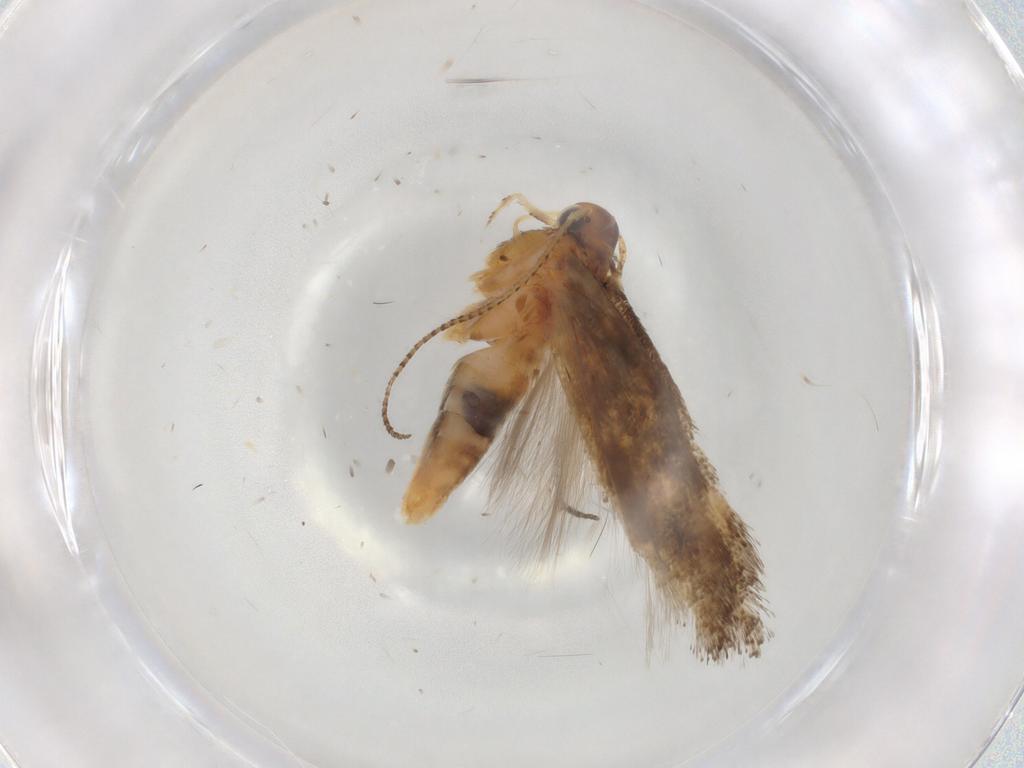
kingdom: Animalia
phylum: Arthropoda
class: Insecta
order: Lepidoptera
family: Gelechiidae
